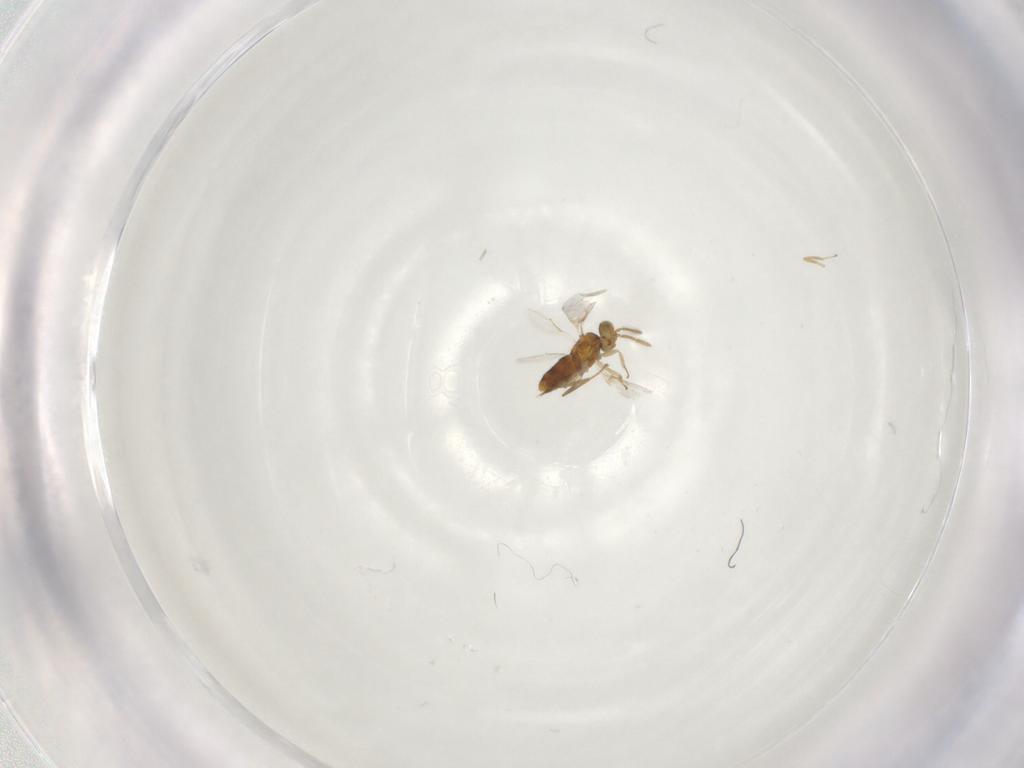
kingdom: Animalia
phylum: Arthropoda
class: Insecta
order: Hymenoptera
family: Aphelinidae
